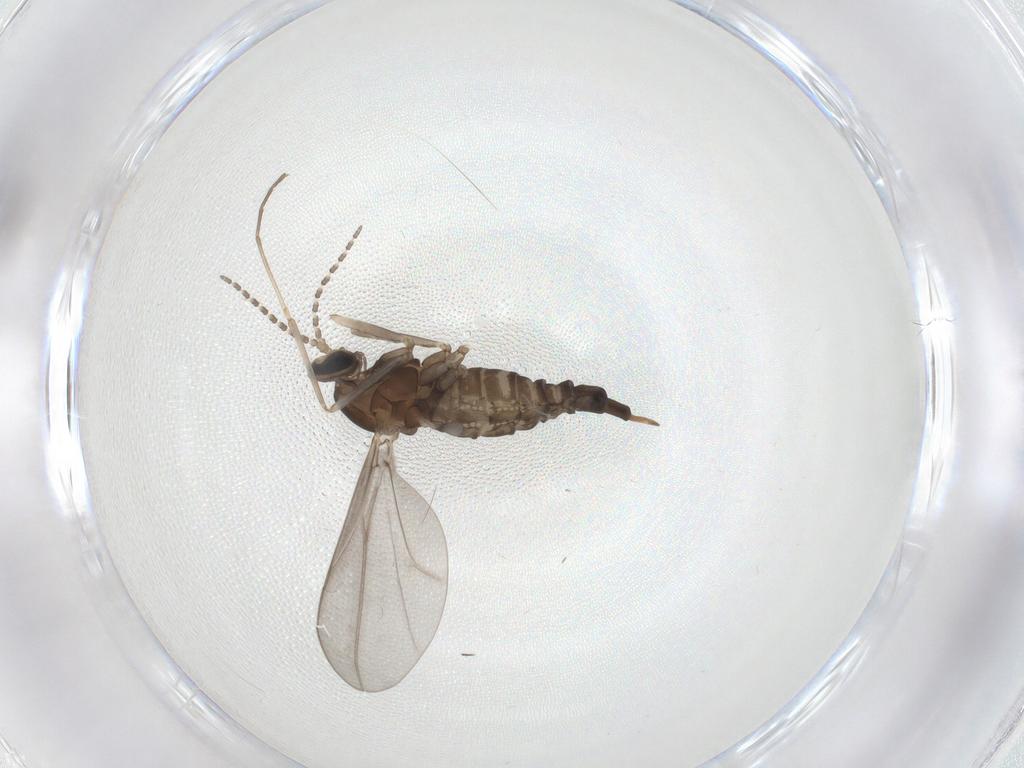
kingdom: Animalia
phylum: Arthropoda
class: Insecta
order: Diptera
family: Cecidomyiidae
